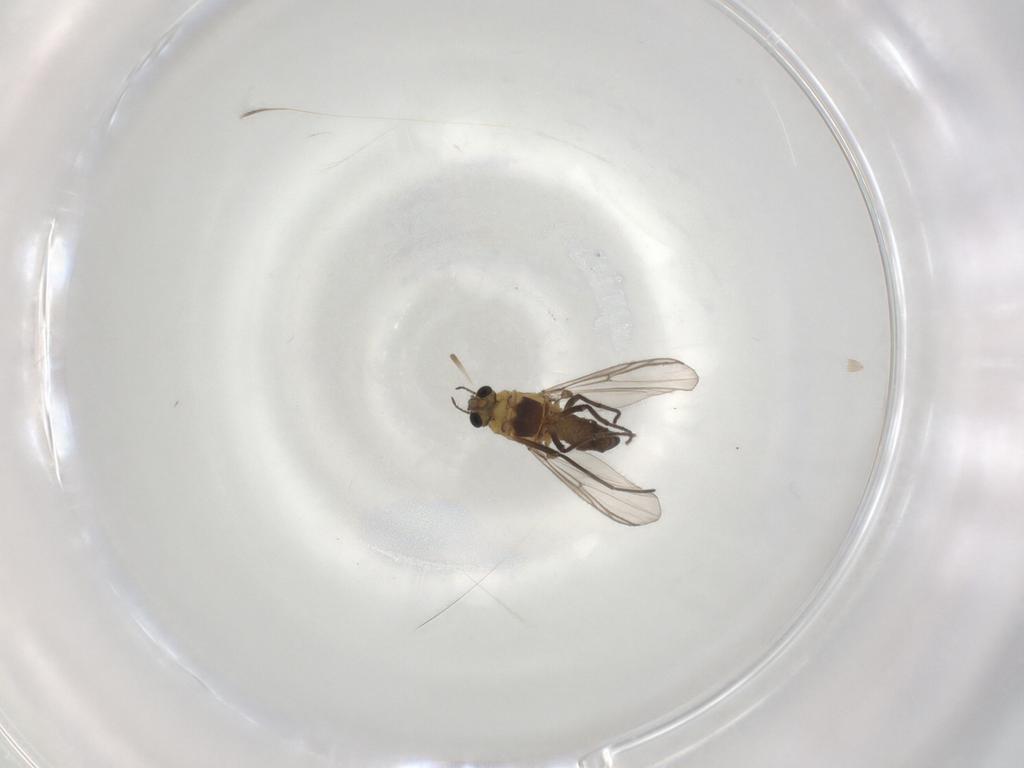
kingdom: Animalia
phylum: Arthropoda
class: Insecta
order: Diptera
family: Chironomidae
